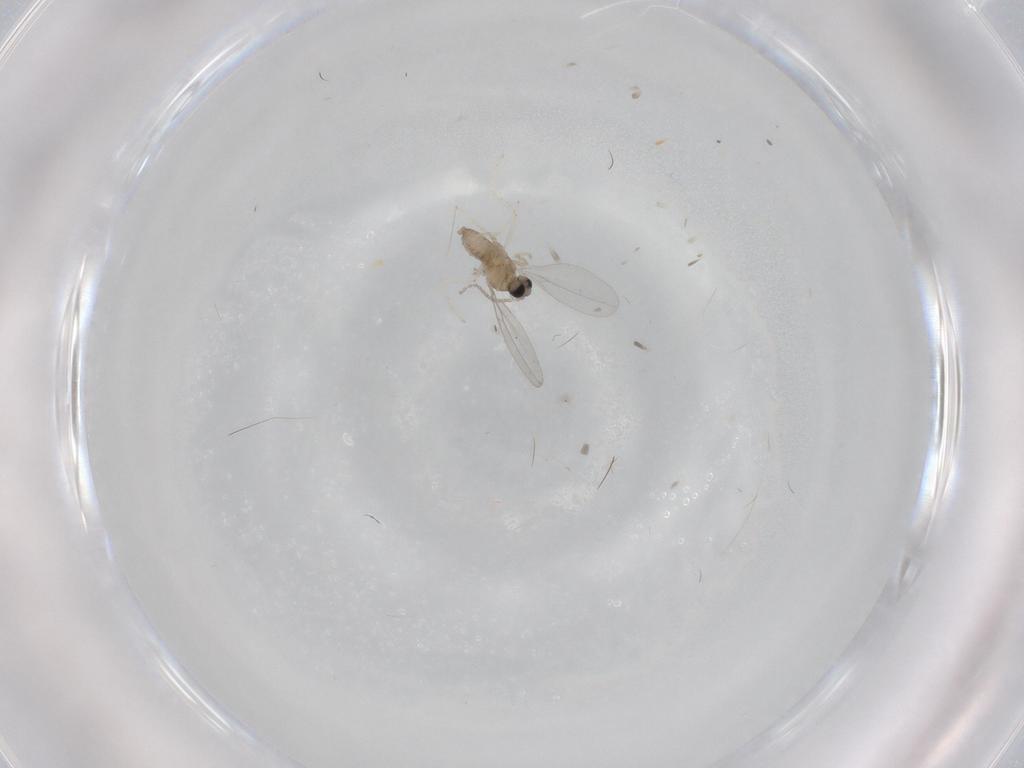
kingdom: Animalia
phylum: Arthropoda
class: Insecta
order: Diptera
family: Cecidomyiidae
